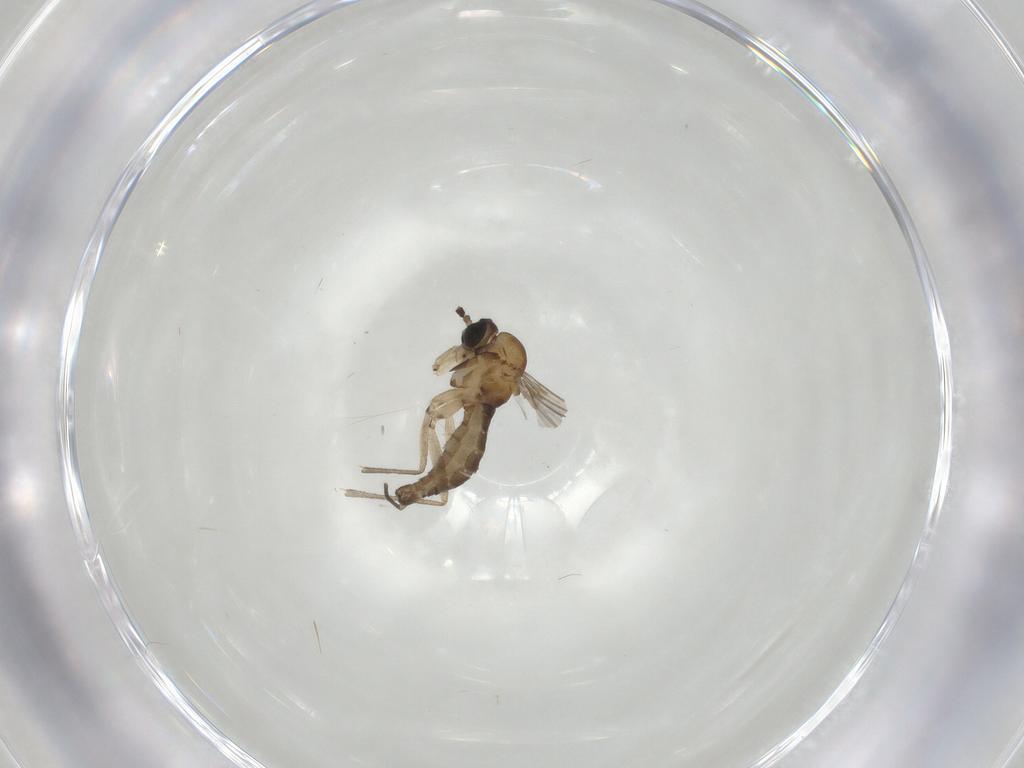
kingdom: Animalia
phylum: Arthropoda
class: Insecta
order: Diptera
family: Sciaridae
